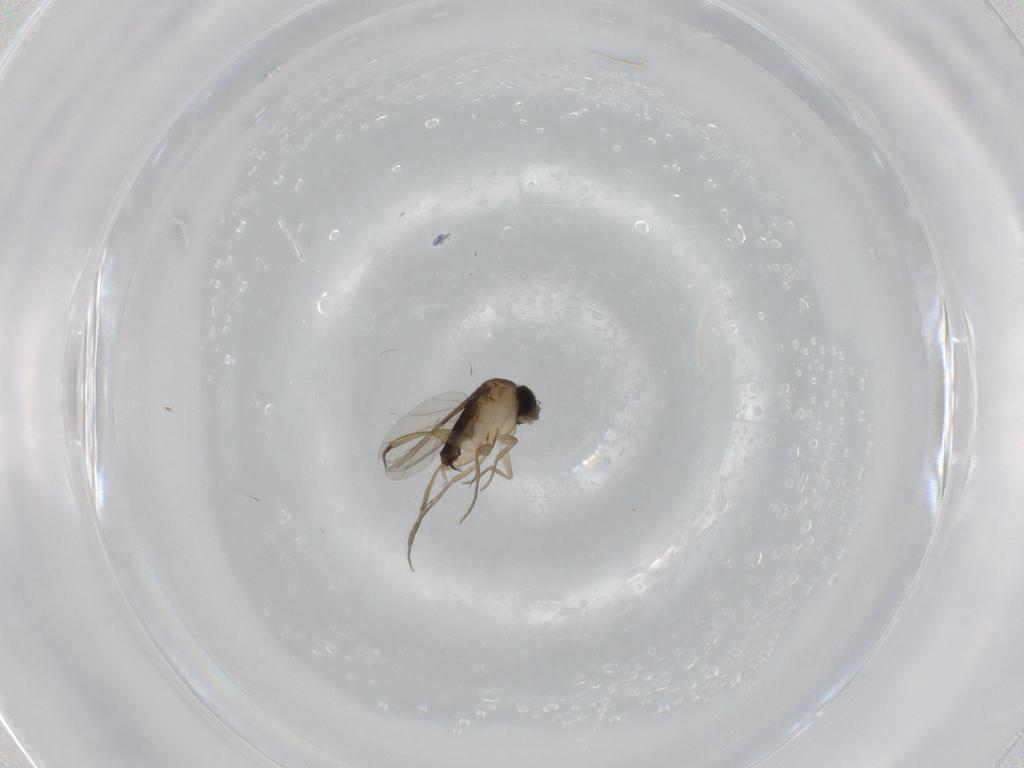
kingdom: Animalia
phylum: Arthropoda
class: Insecta
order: Diptera
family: Phoridae
